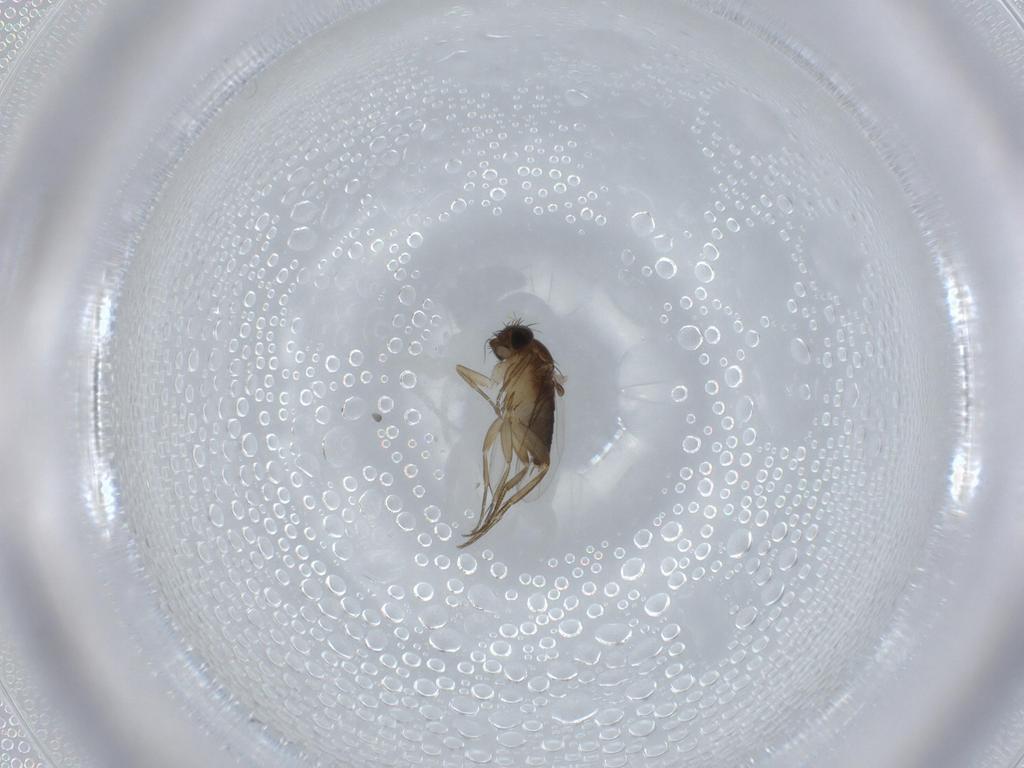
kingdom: Animalia
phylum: Arthropoda
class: Insecta
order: Diptera
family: Phoridae
